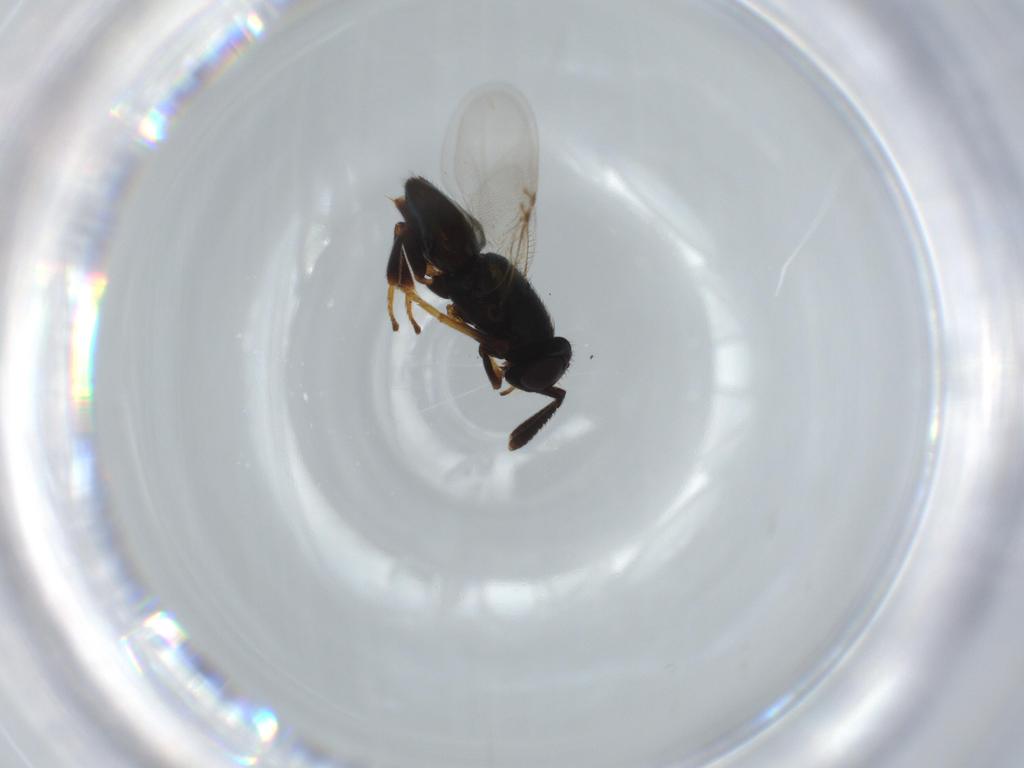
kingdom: Animalia
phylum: Arthropoda
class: Insecta
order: Hymenoptera
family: Encyrtidae
